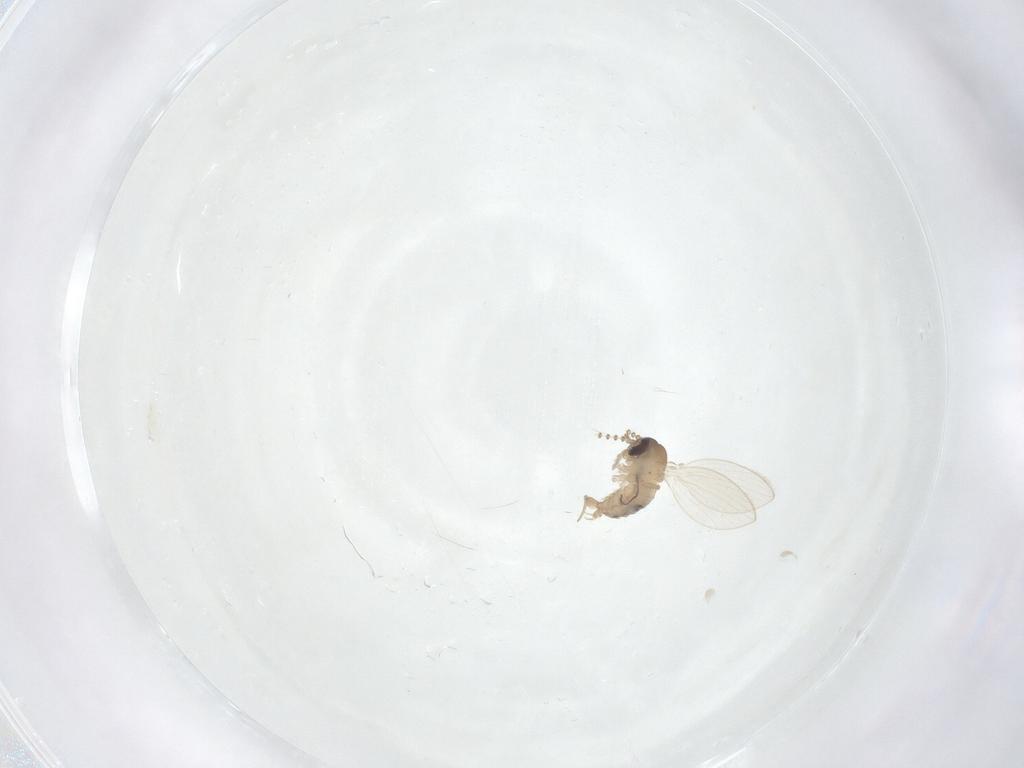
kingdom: Animalia
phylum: Arthropoda
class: Insecta
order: Diptera
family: Psychodidae
